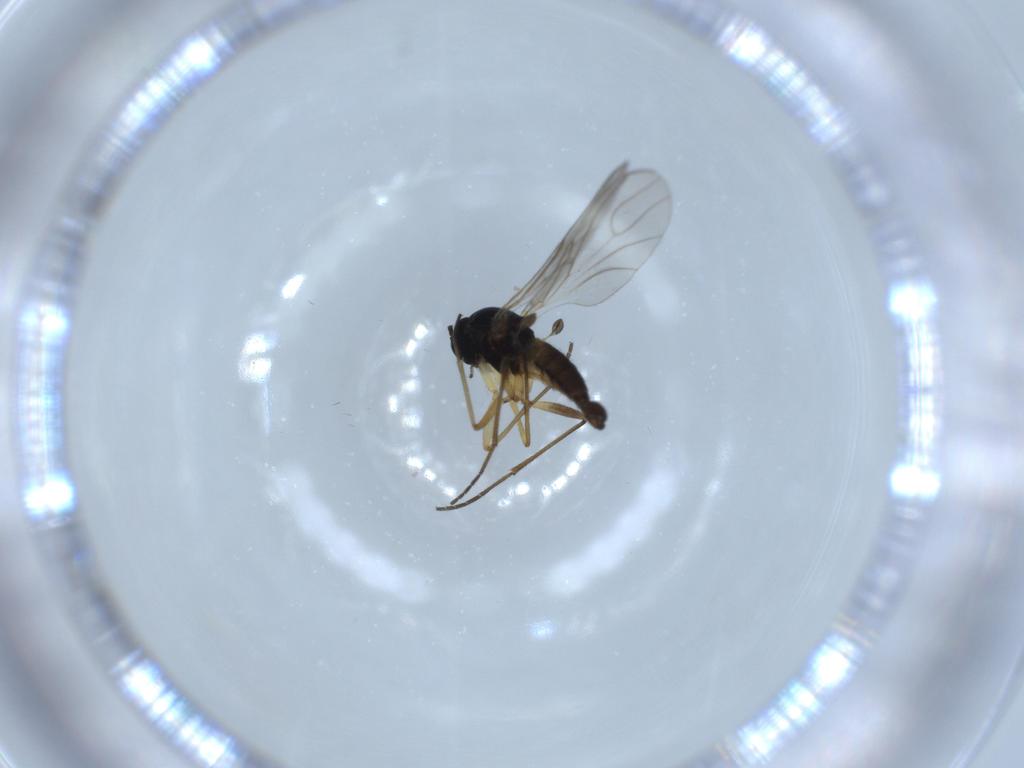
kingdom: Animalia
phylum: Arthropoda
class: Insecta
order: Diptera
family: Sciaridae
